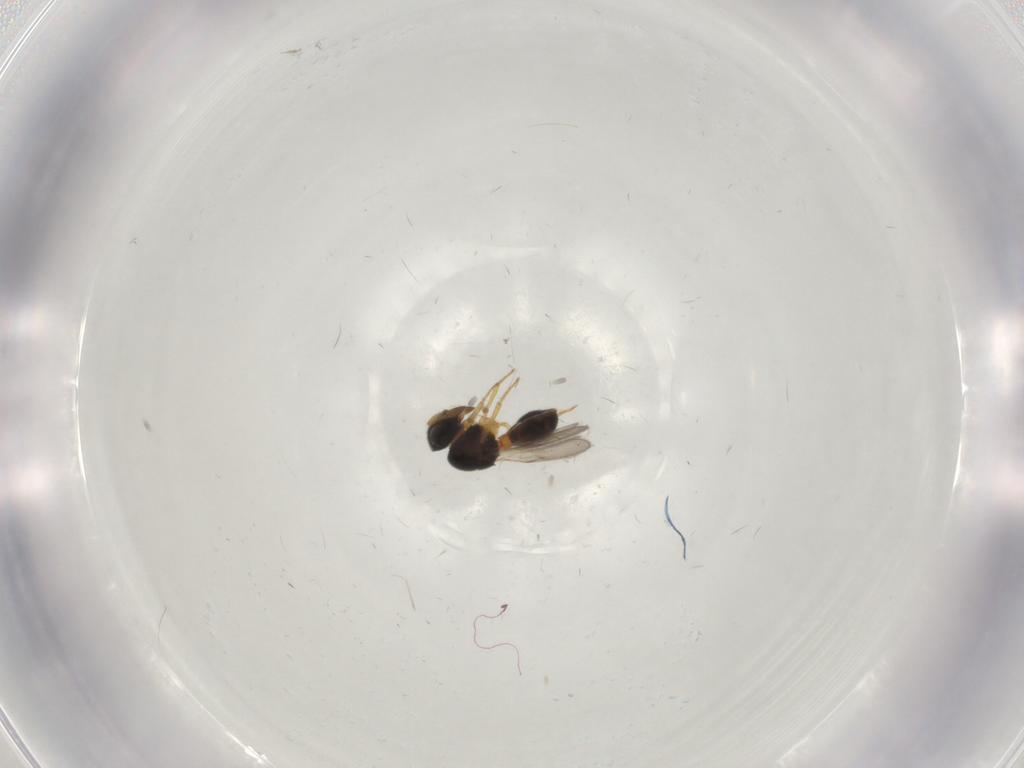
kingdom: Animalia
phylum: Arthropoda
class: Insecta
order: Hymenoptera
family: Scelionidae
